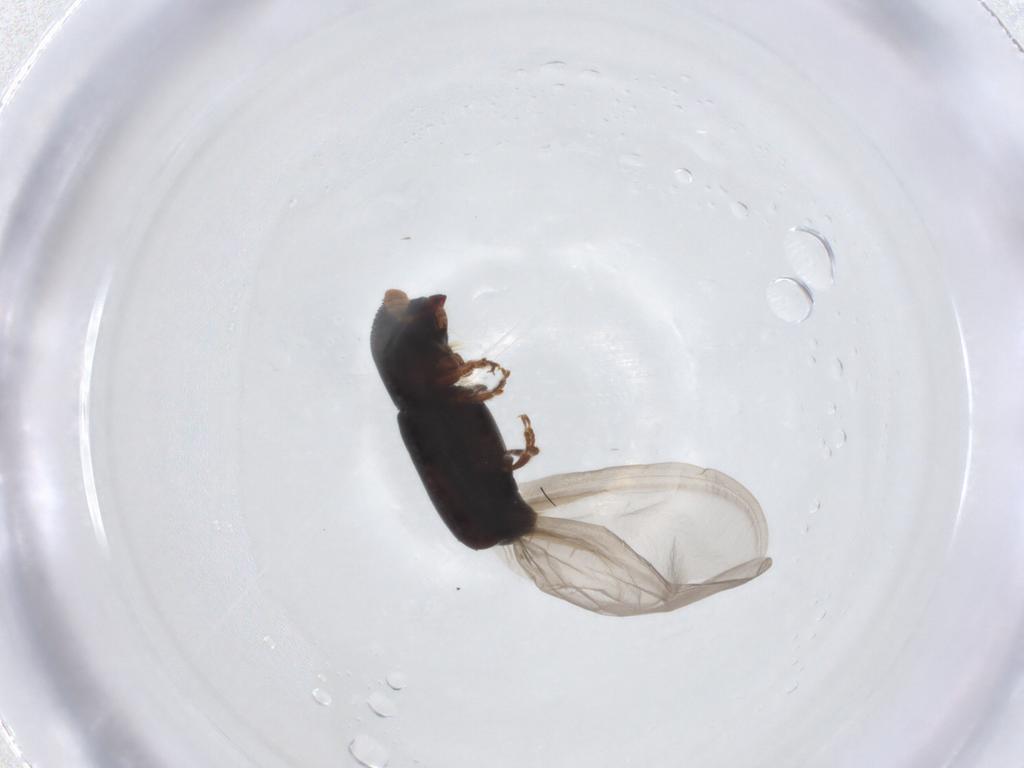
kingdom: Animalia
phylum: Arthropoda
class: Insecta
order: Coleoptera
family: Curculionidae
